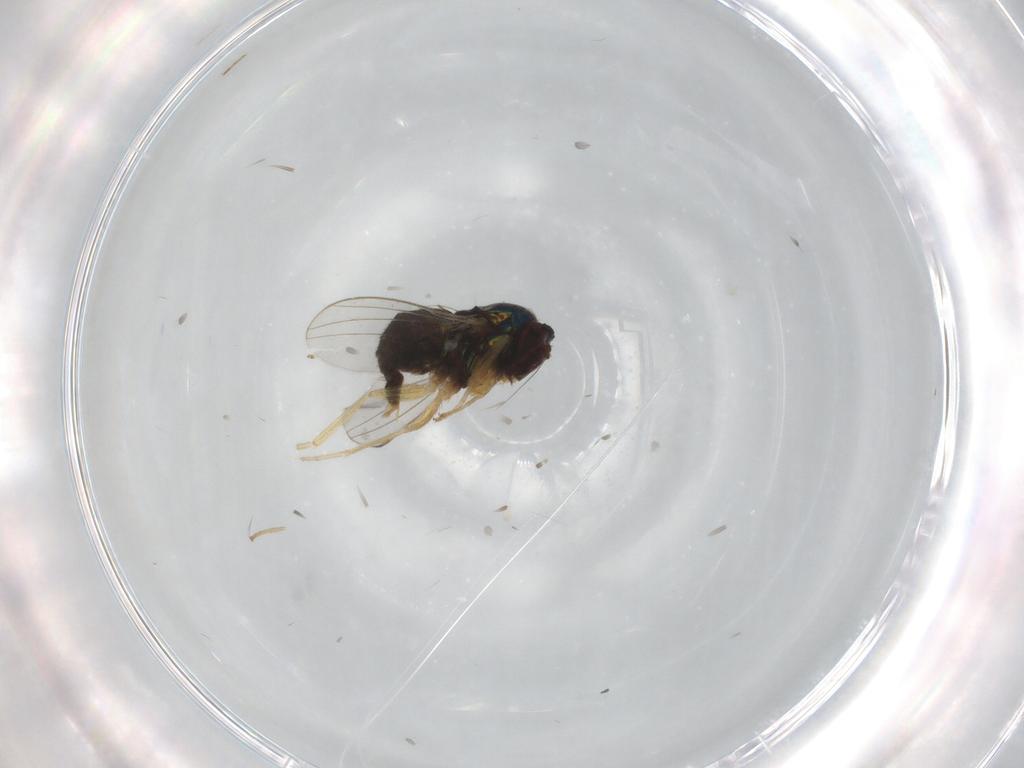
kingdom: Animalia
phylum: Arthropoda
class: Insecta
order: Diptera
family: Dolichopodidae
